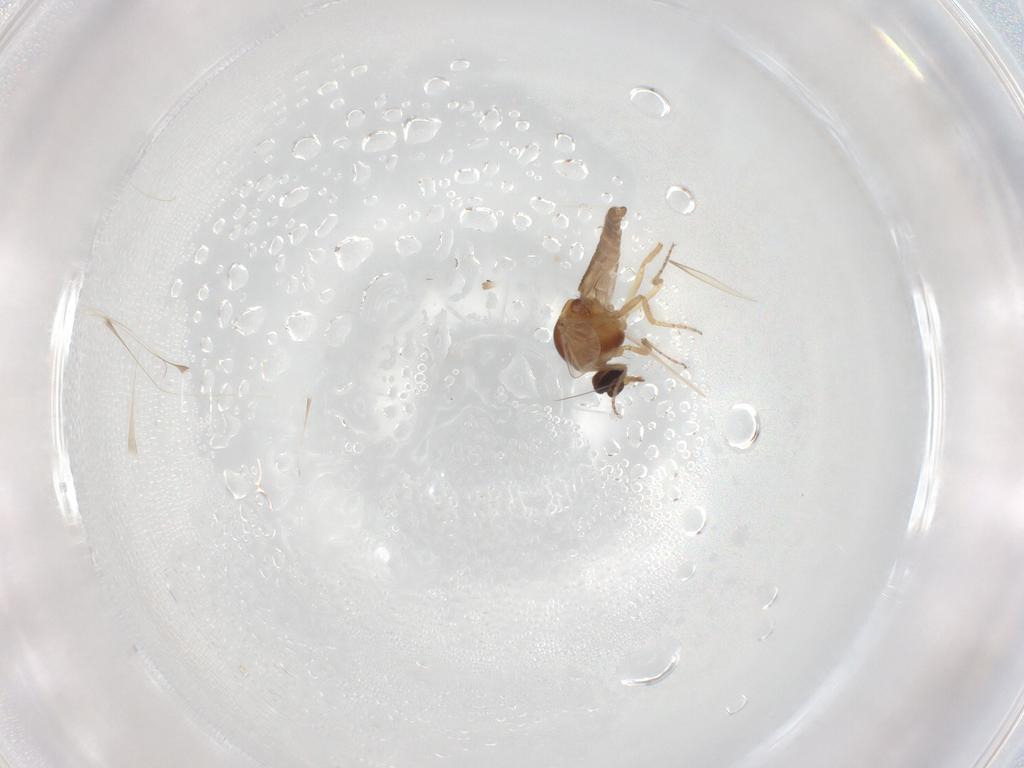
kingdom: Animalia
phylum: Arthropoda
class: Insecta
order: Diptera
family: Ceratopogonidae
